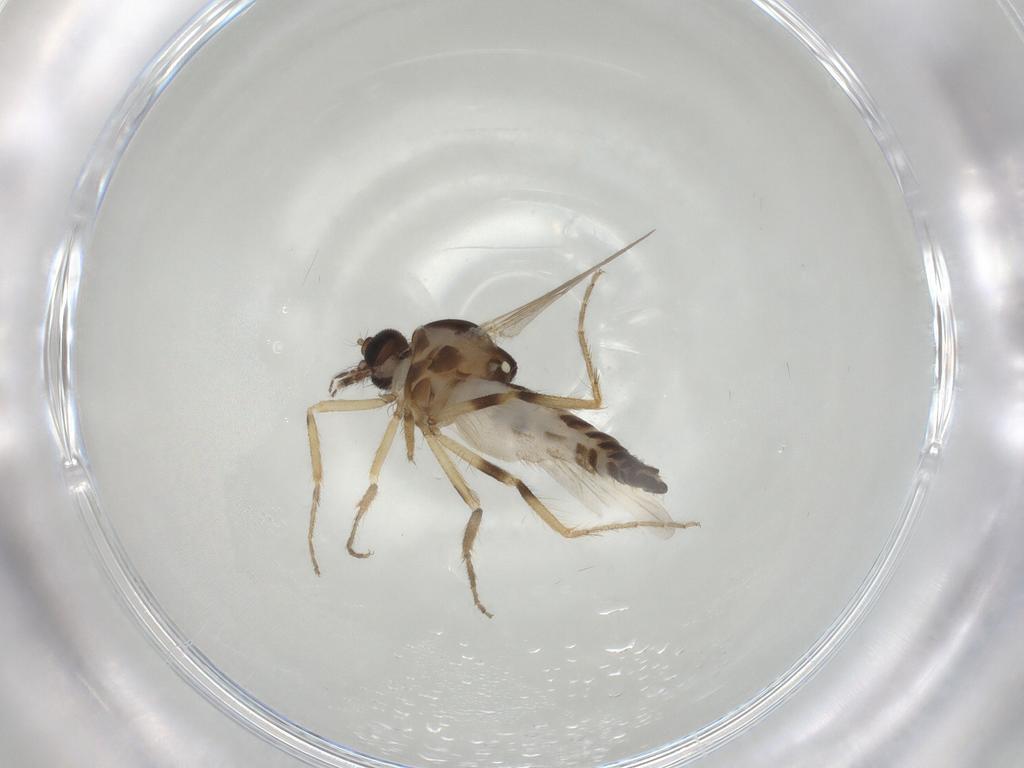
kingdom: Animalia
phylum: Arthropoda
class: Insecta
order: Diptera
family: Ceratopogonidae
